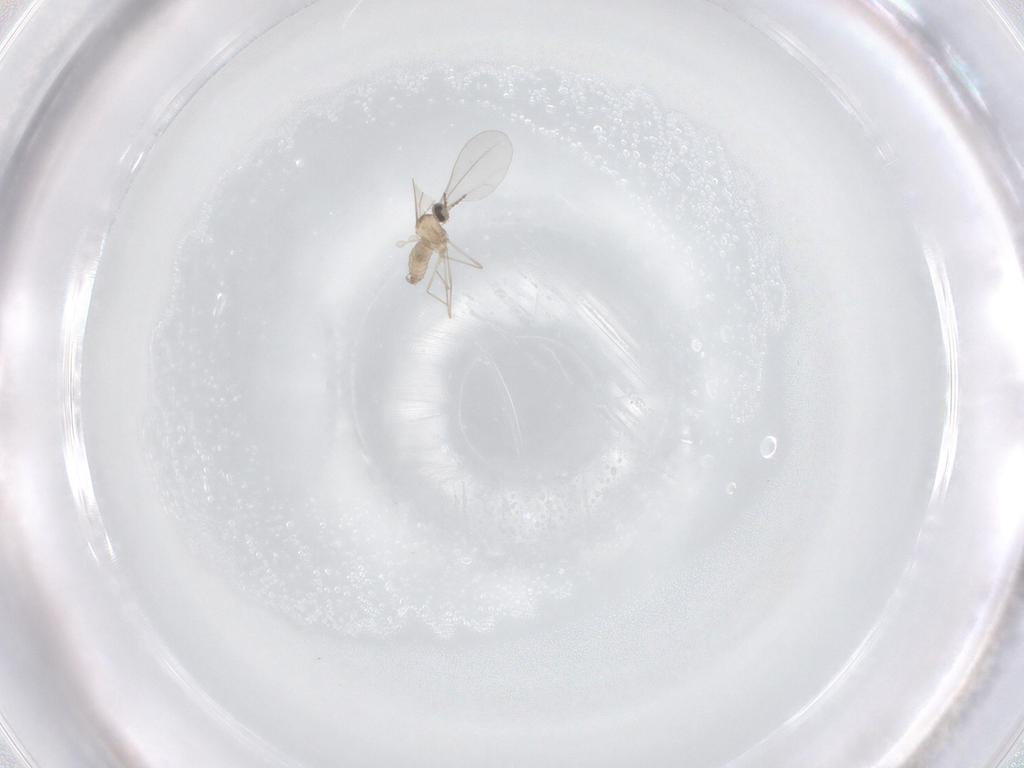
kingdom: Animalia
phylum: Arthropoda
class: Insecta
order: Diptera
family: Cecidomyiidae
